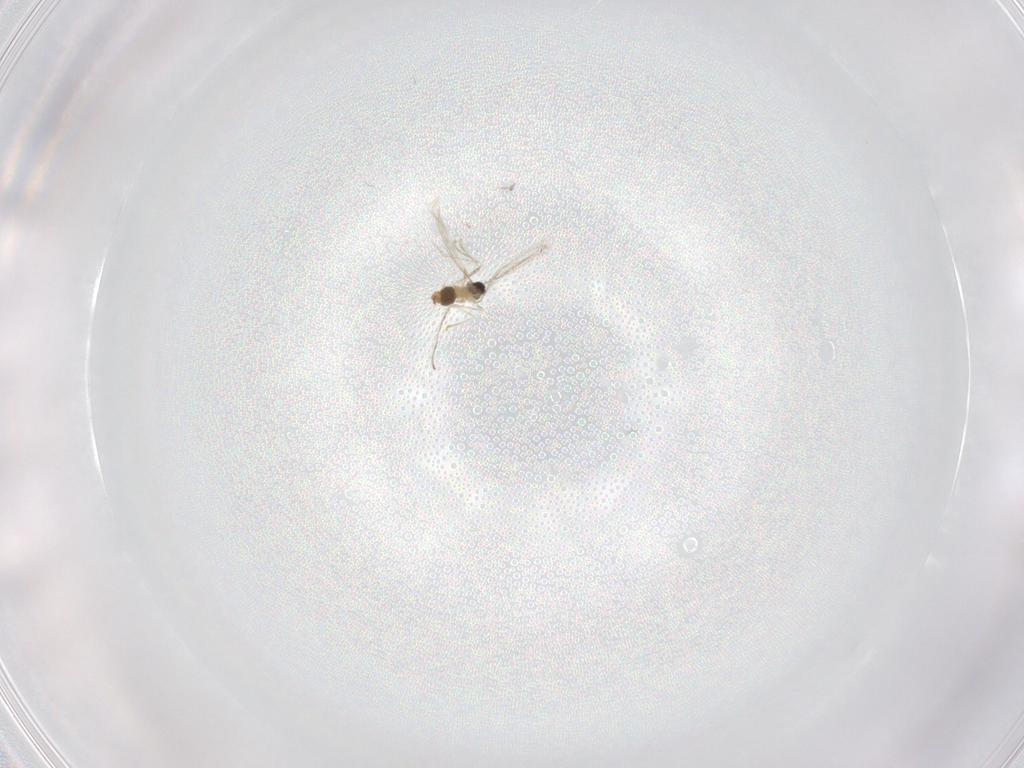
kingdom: Animalia
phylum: Arthropoda
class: Insecta
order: Diptera
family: Cecidomyiidae
